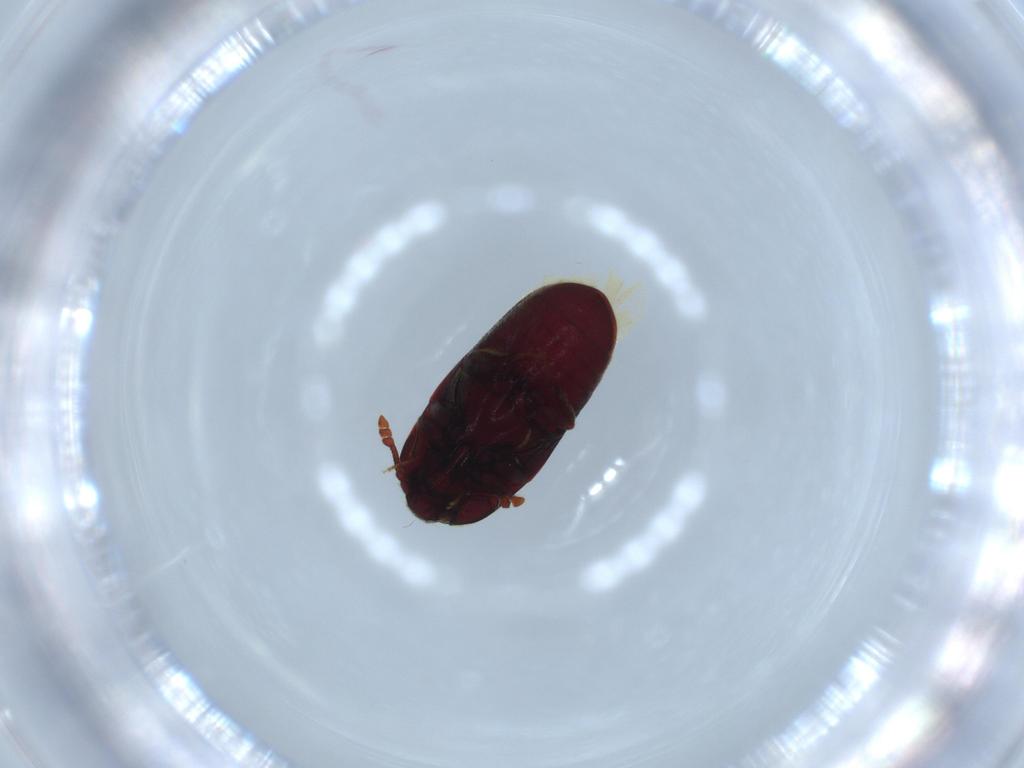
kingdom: Animalia
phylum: Arthropoda
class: Insecta
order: Coleoptera
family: Throscidae
